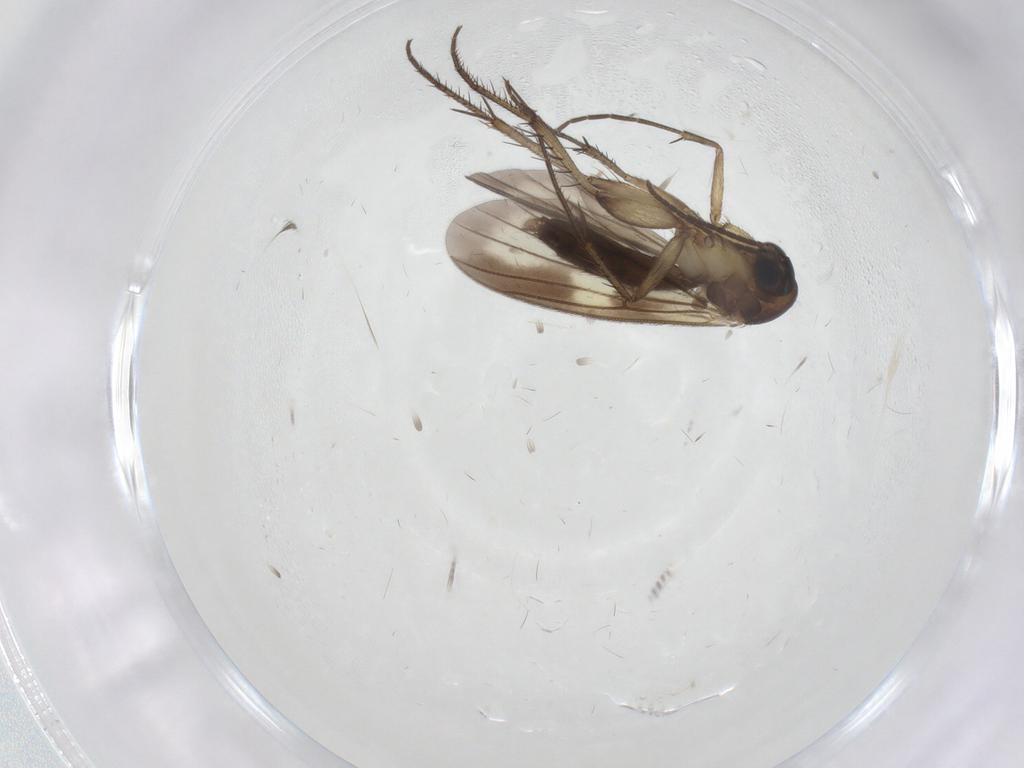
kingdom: Animalia
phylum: Arthropoda
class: Insecta
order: Diptera
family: Mycetophilidae
